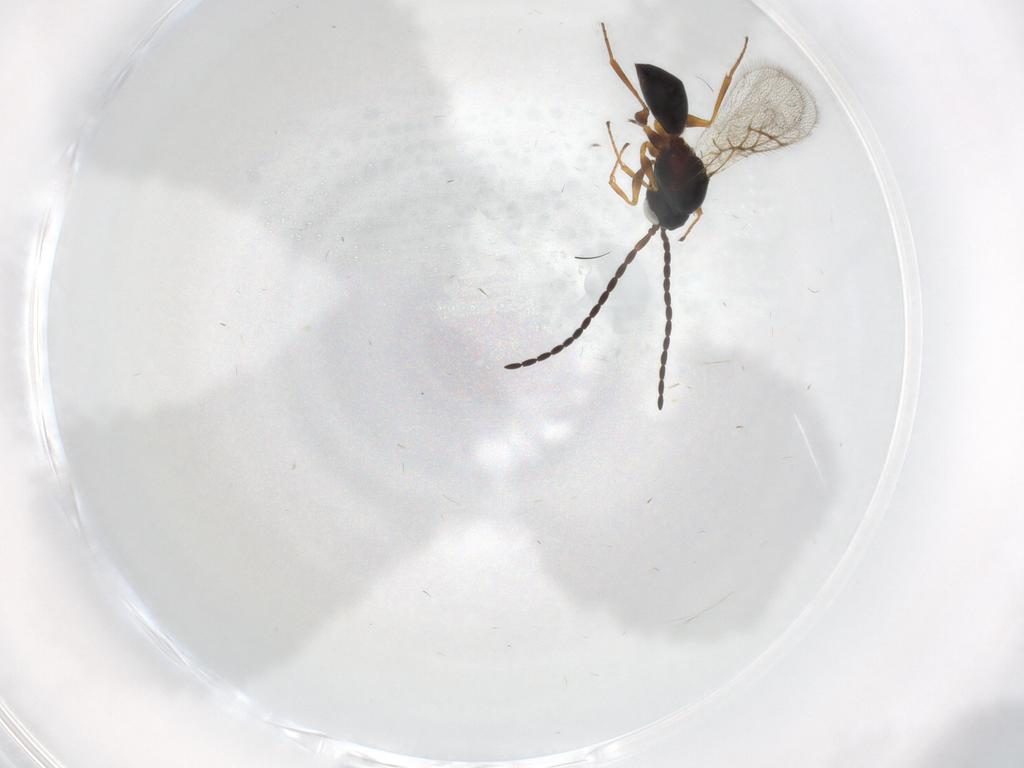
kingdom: Animalia
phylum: Arthropoda
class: Insecta
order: Hymenoptera
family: Figitidae
